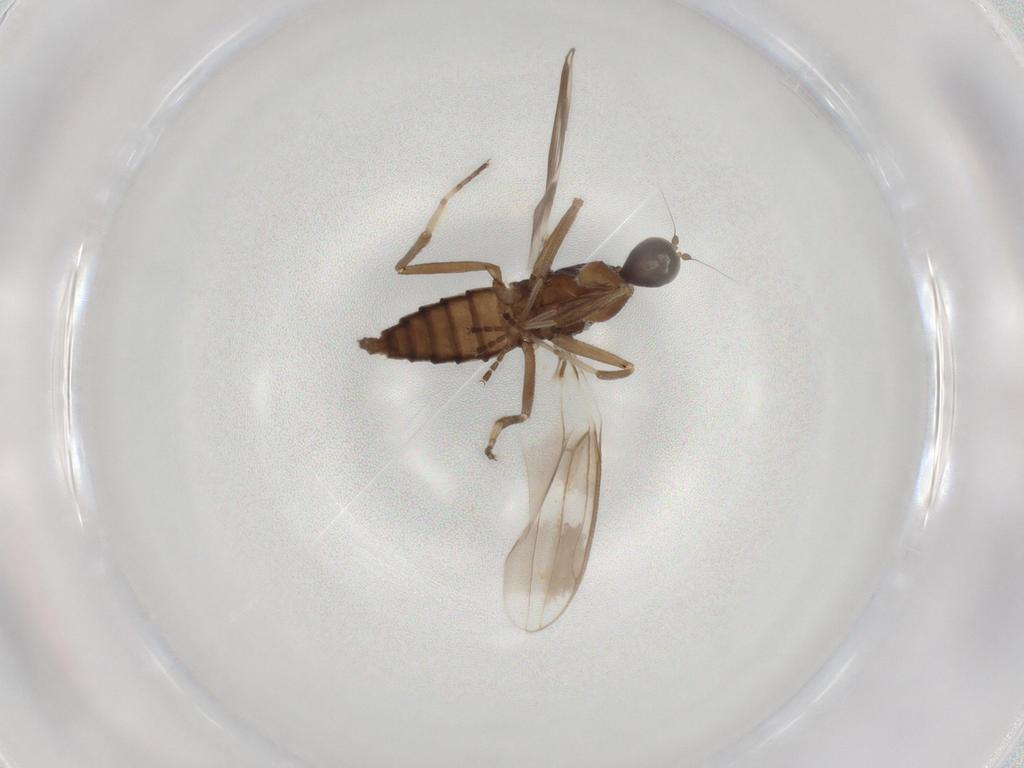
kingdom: Animalia
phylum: Arthropoda
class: Insecta
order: Diptera
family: Hybotidae
